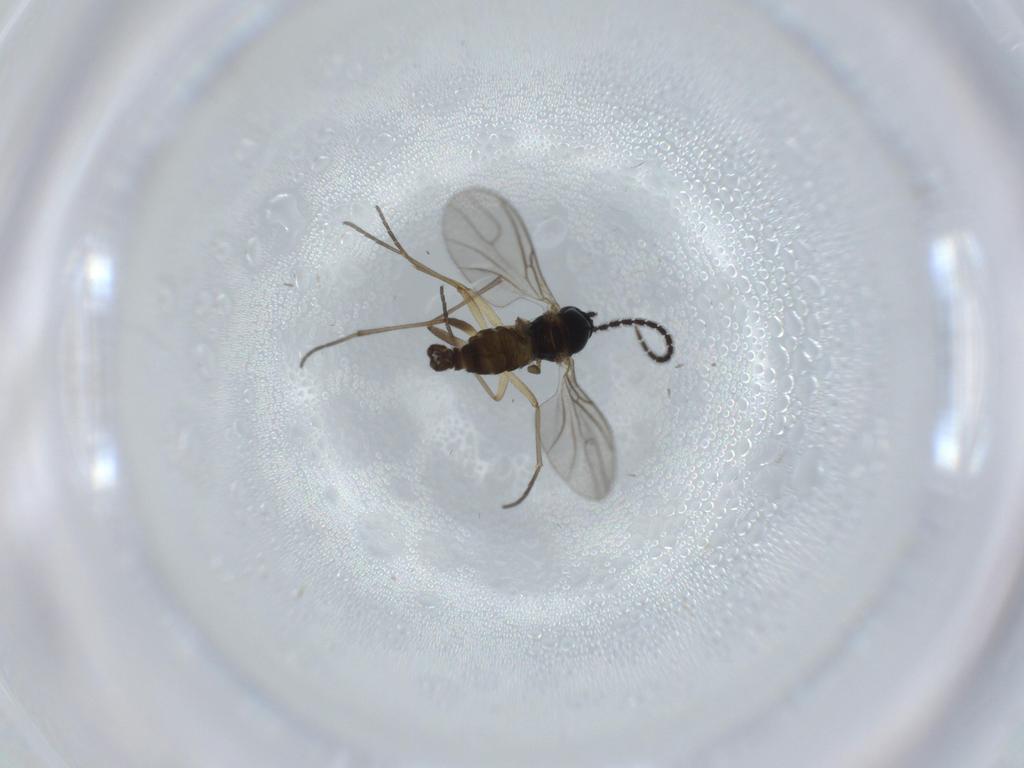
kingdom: Animalia
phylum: Arthropoda
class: Insecta
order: Diptera
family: Sciaridae
